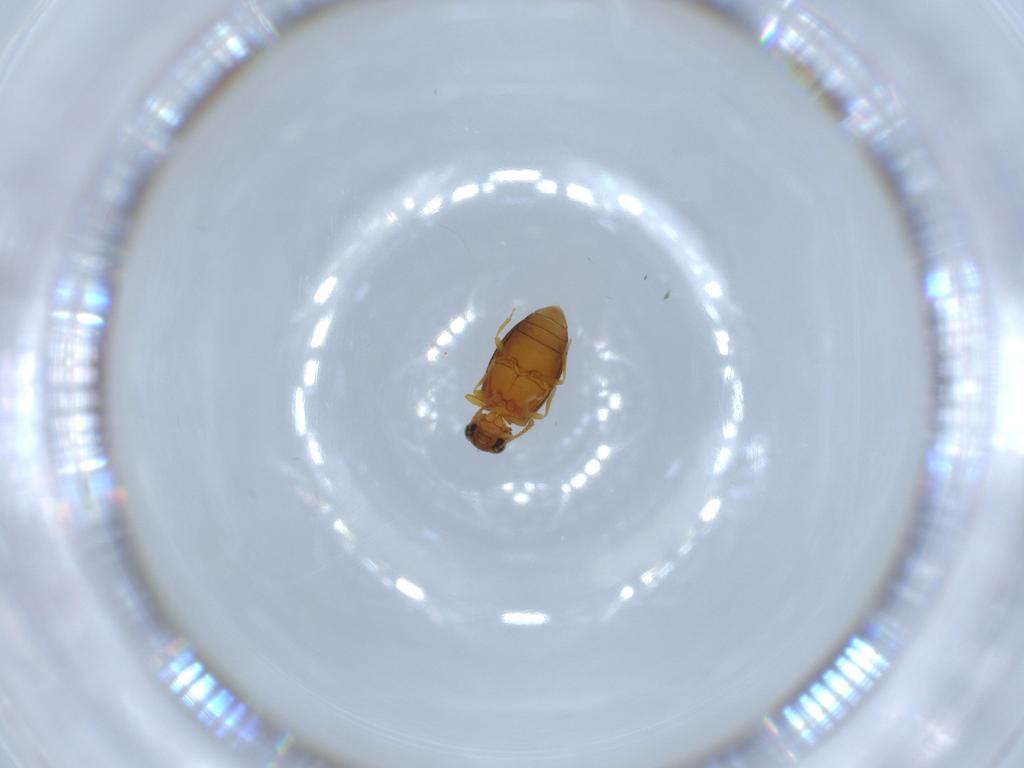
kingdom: Animalia
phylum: Arthropoda
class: Insecta
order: Coleoptera
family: Aderidae
